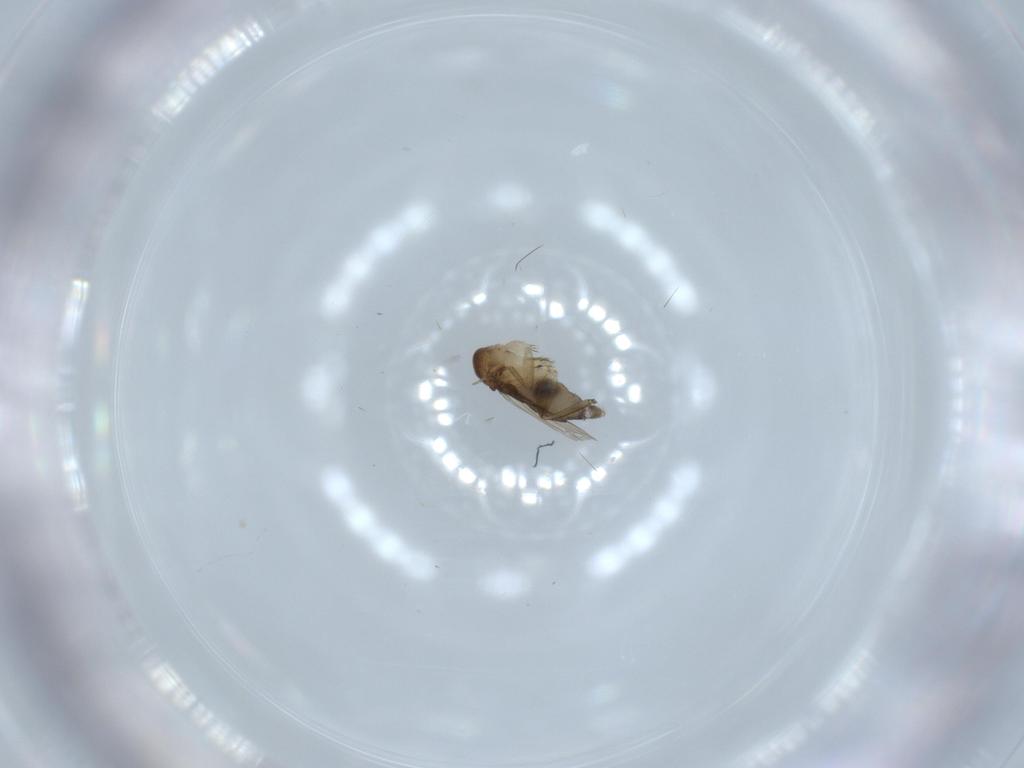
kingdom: Animalia
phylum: Arthropoda
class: Insecta
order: Diptera
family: Phoridae
